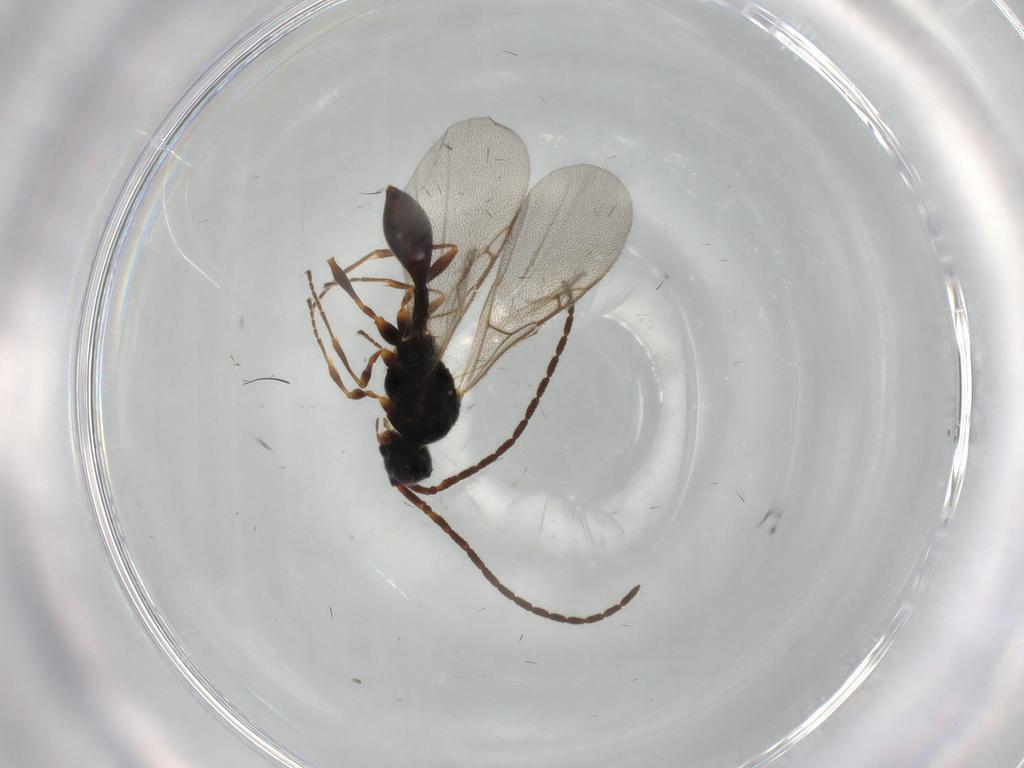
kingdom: Animalia
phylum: Arthropoda
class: Insecta
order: Hymenoptera
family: Diapriidae
